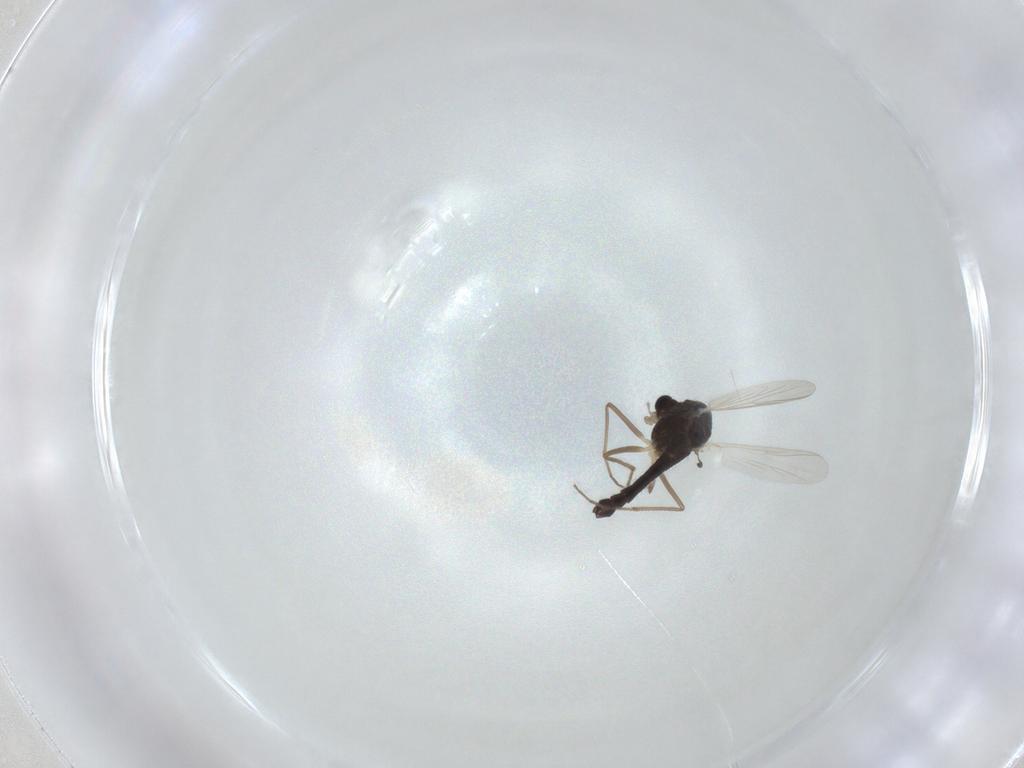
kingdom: Animalia
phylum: Arthropoda
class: Insecta
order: Diptera
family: Chironomidae
